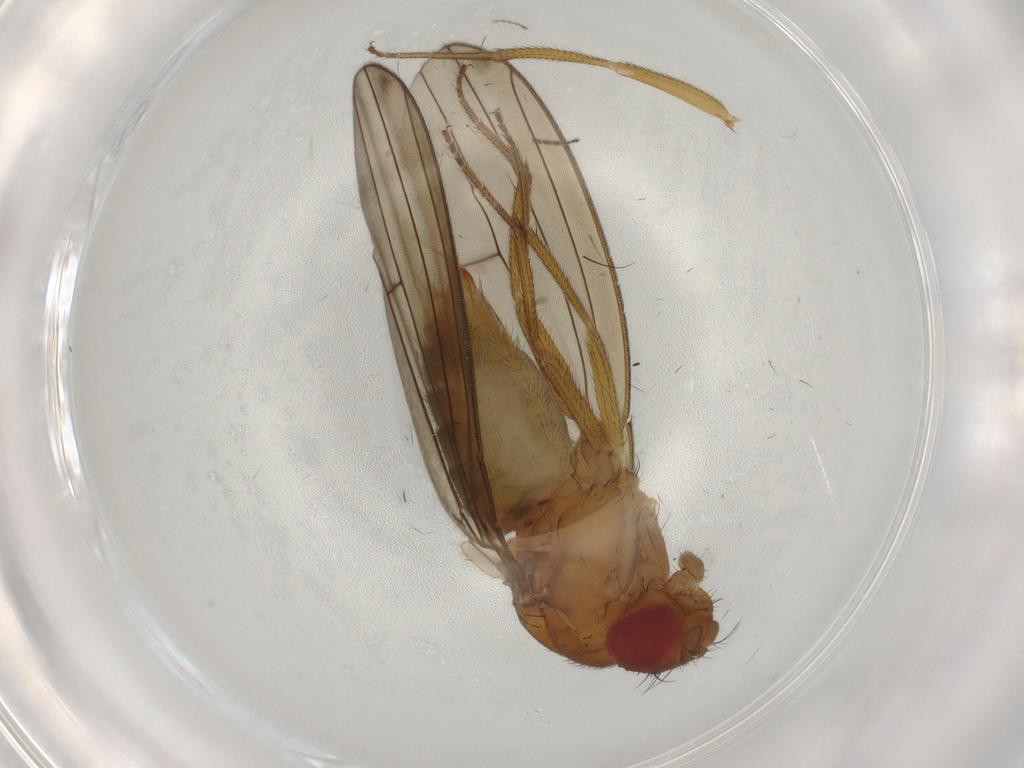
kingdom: Animalia
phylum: Arthropoda
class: Insecta
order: Diptera
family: Drosophilidae
